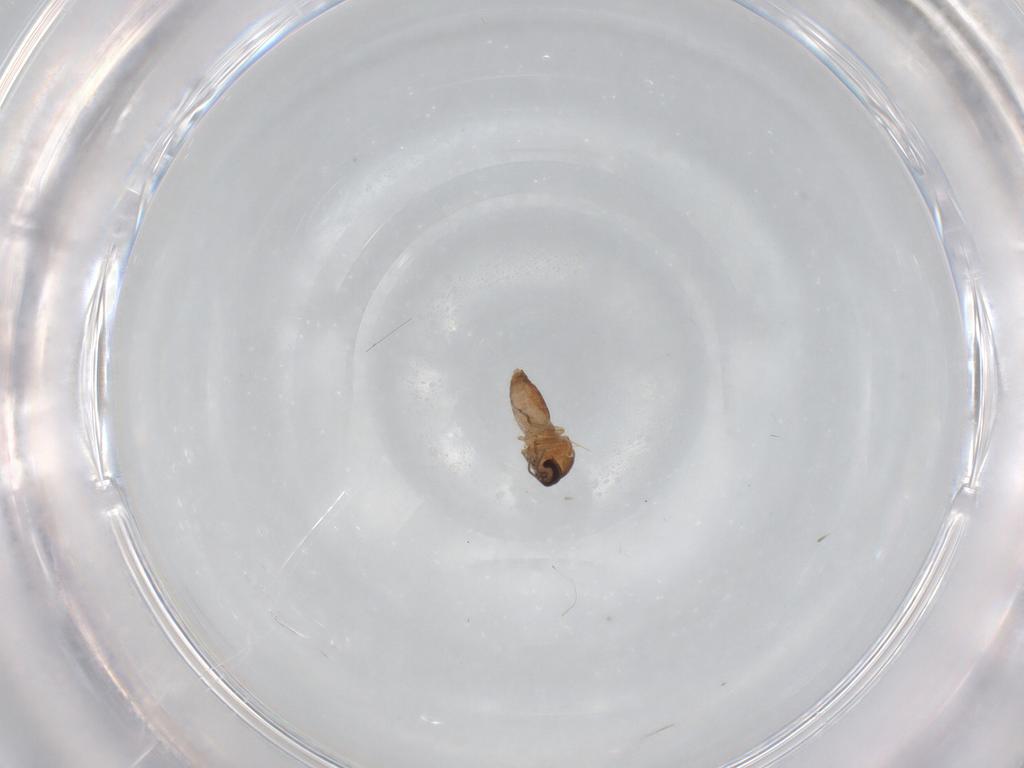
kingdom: Animalia
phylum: Arthropoda
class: Insecta
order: Diptera
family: Ceratopogonidae
